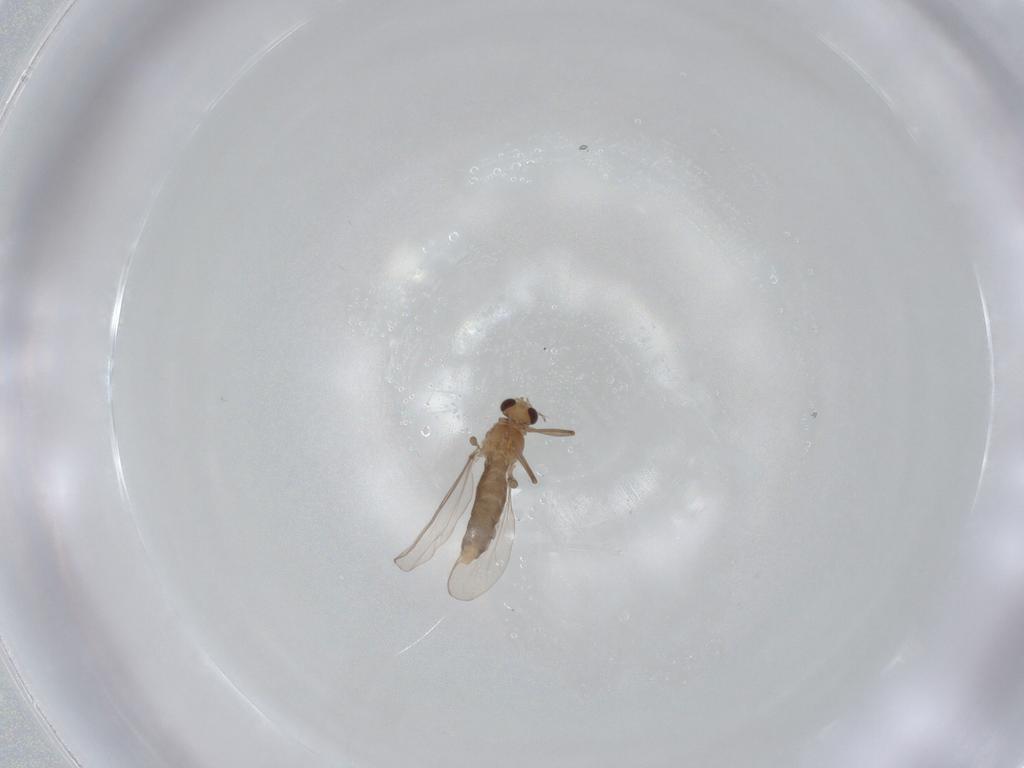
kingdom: Animalia
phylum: Arthropoda
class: Insecta
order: Diptera
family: Chironomidae
